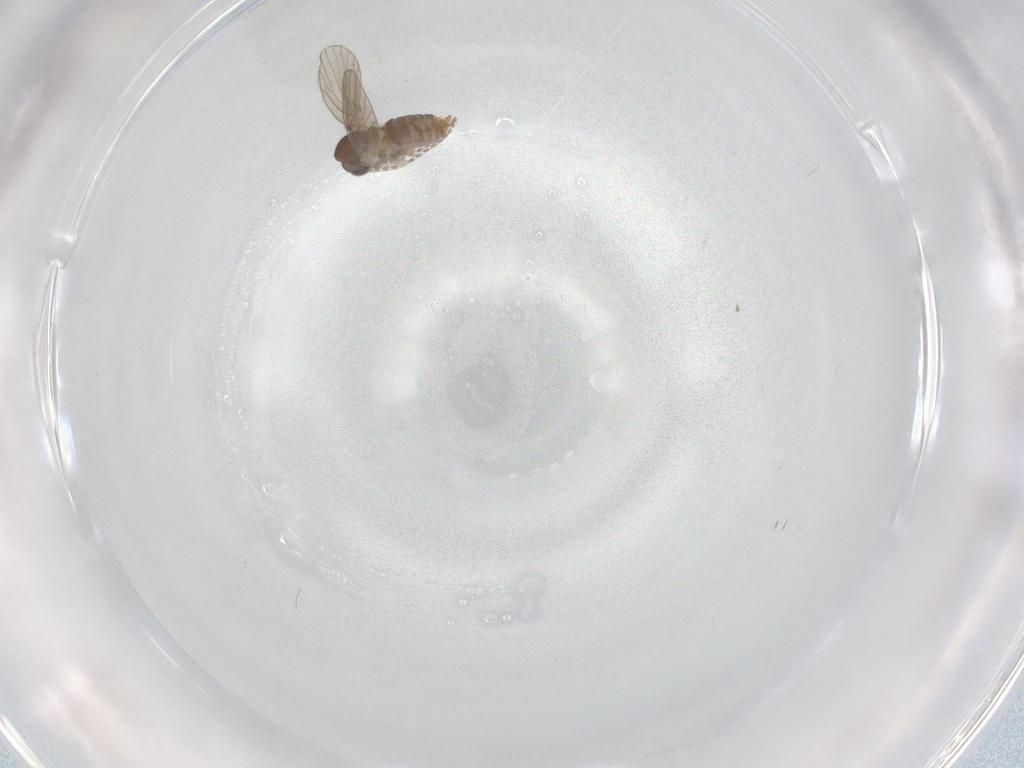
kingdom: Animalia
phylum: Arthropoda
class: Insecta
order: Diptera
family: Cecidomyiidae
